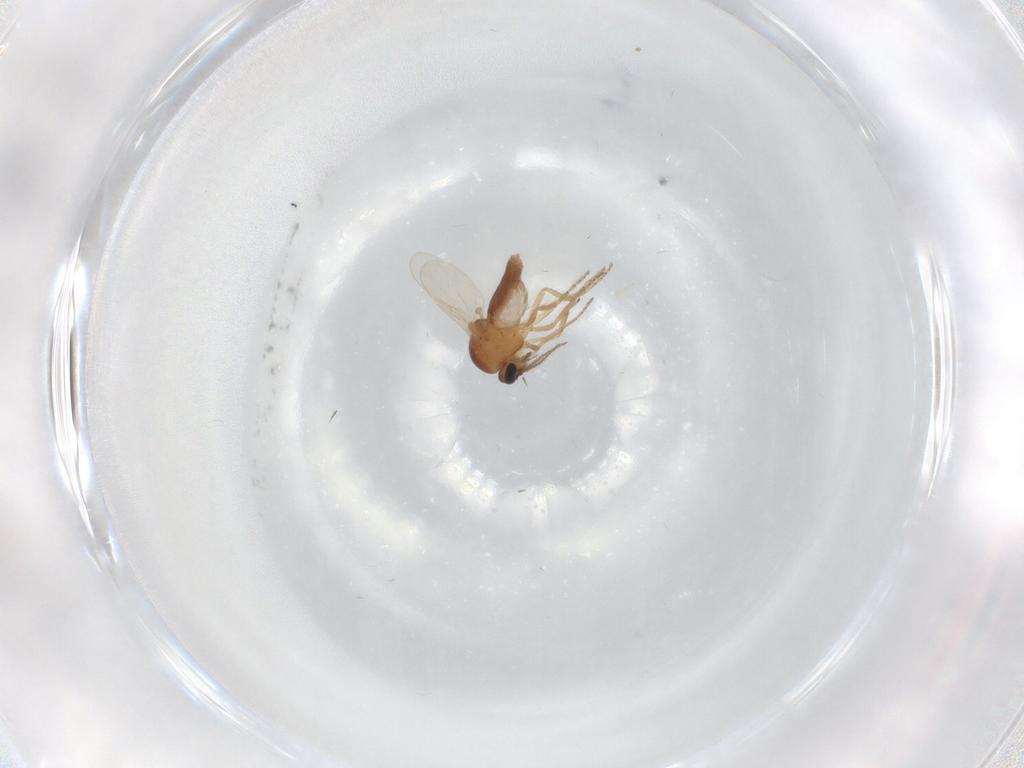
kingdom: Animalia
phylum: Arthropoda
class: Insecta
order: Diptera
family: Ceratopogonidae
